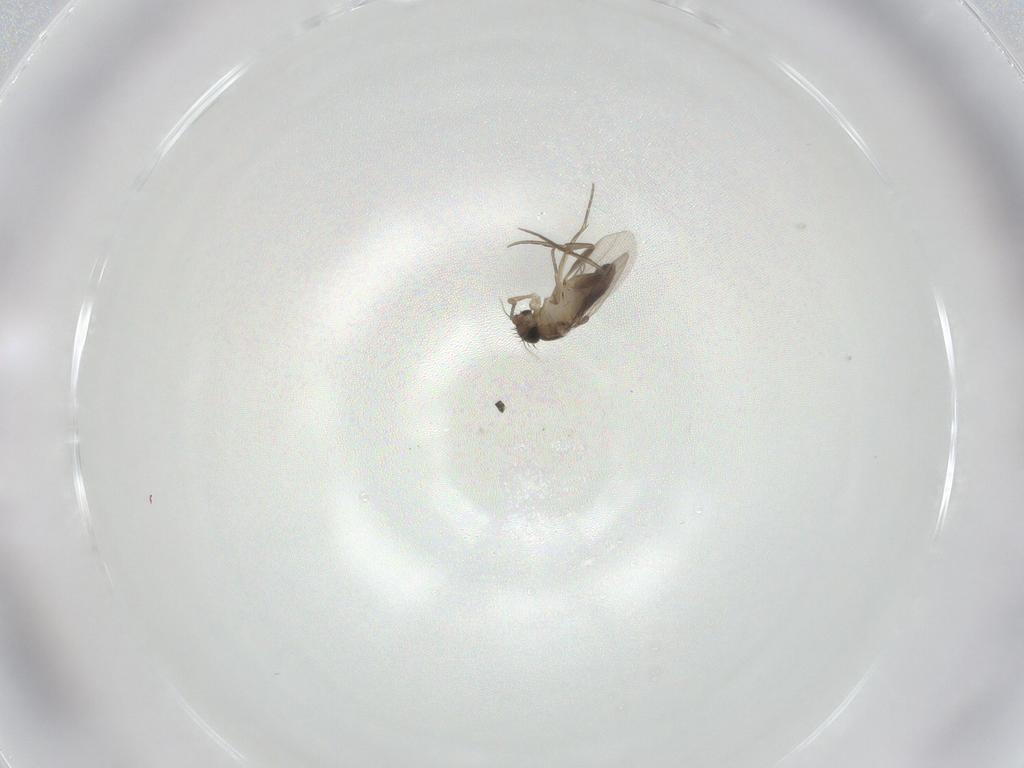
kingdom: Animalia
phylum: Arthropoda
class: Insecta
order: Diptera
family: Phoridae
